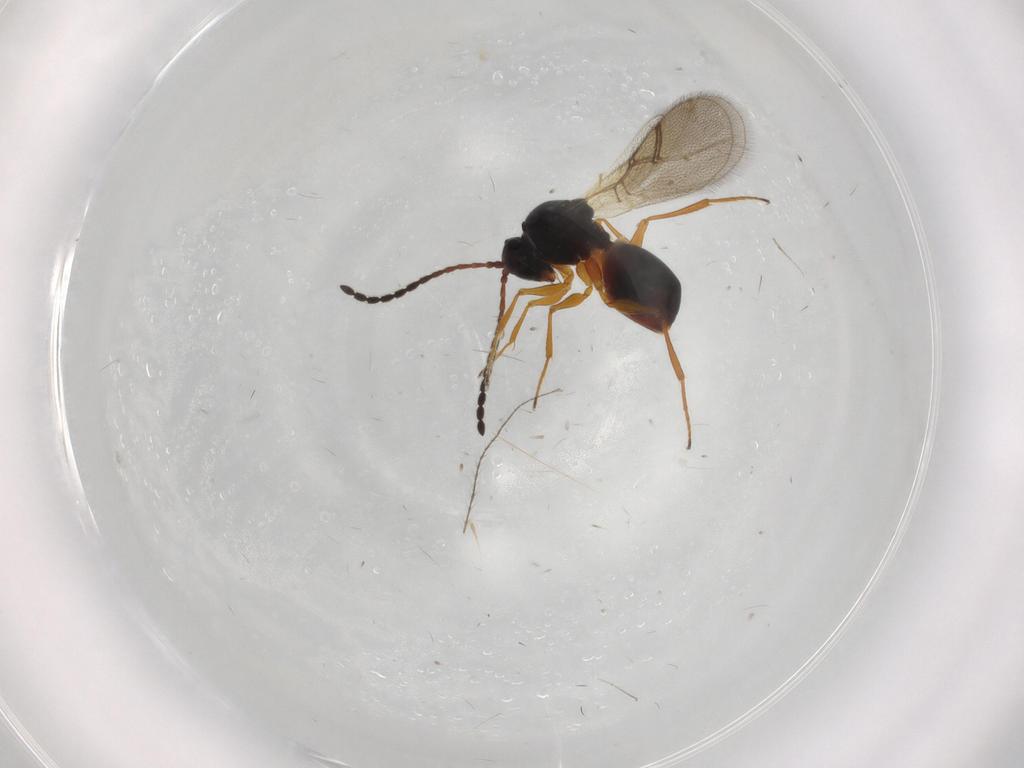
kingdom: Animalia
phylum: Arthropoda
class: Insecta
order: Hymenoptera
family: Figitidae
